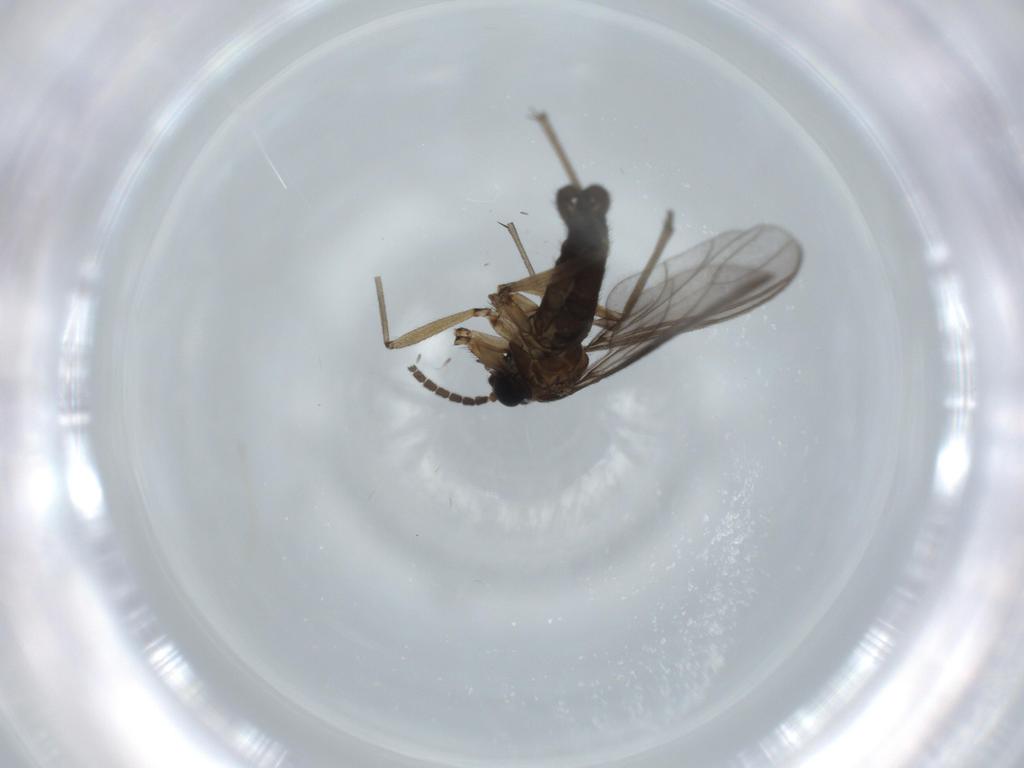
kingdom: Animalia
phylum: Arthropoda
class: Insecta
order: Diptera
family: Sciaridae
